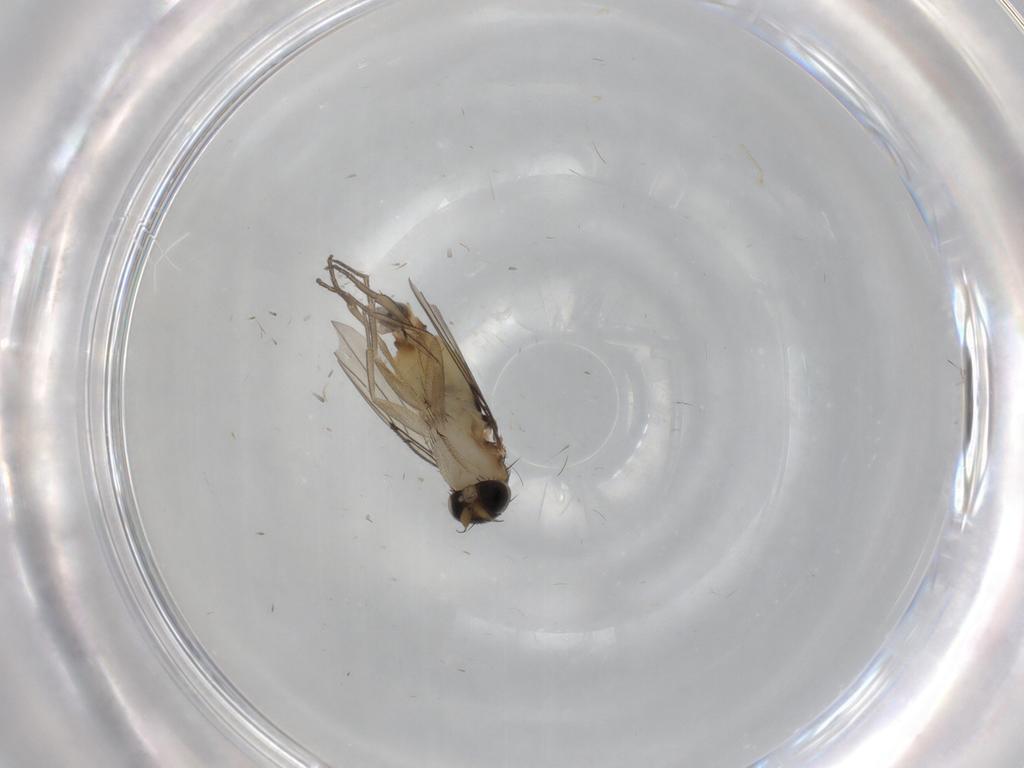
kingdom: Animalia
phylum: Arthropoda
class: Insecta
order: Diptera
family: Phoridae
